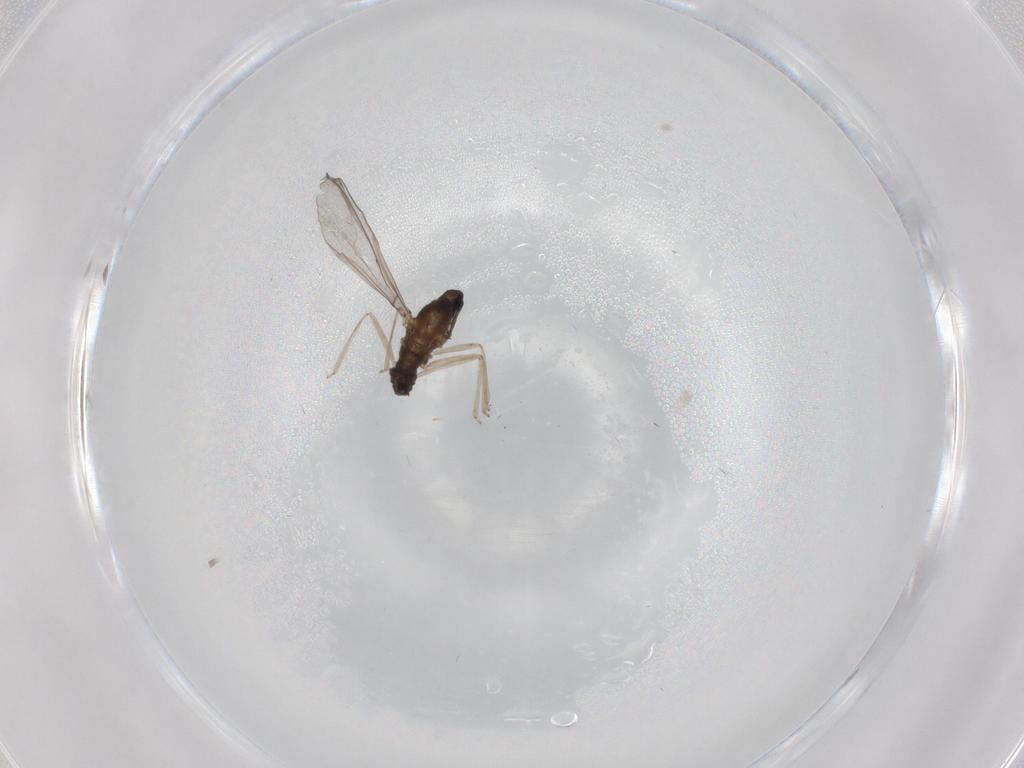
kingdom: Animalia
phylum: Arthropoda
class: Insecta
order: Diptera
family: Cecidomyiidae
